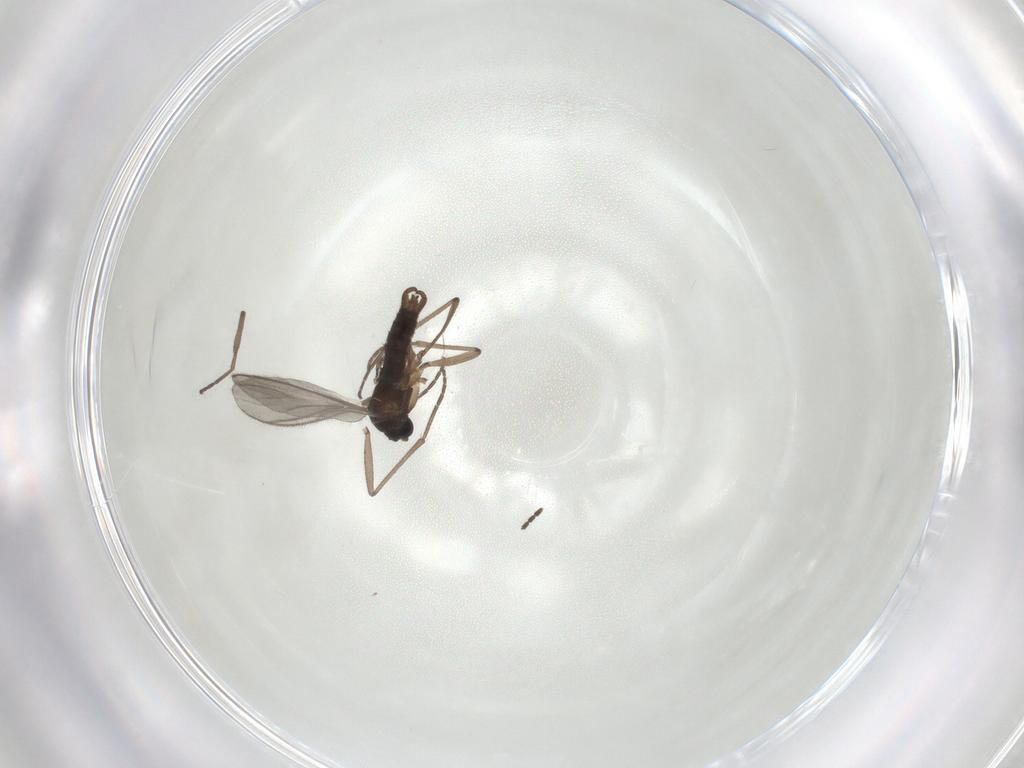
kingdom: Animalia
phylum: Arthropoda
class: Insecta
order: Diptera
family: Sciaridae
